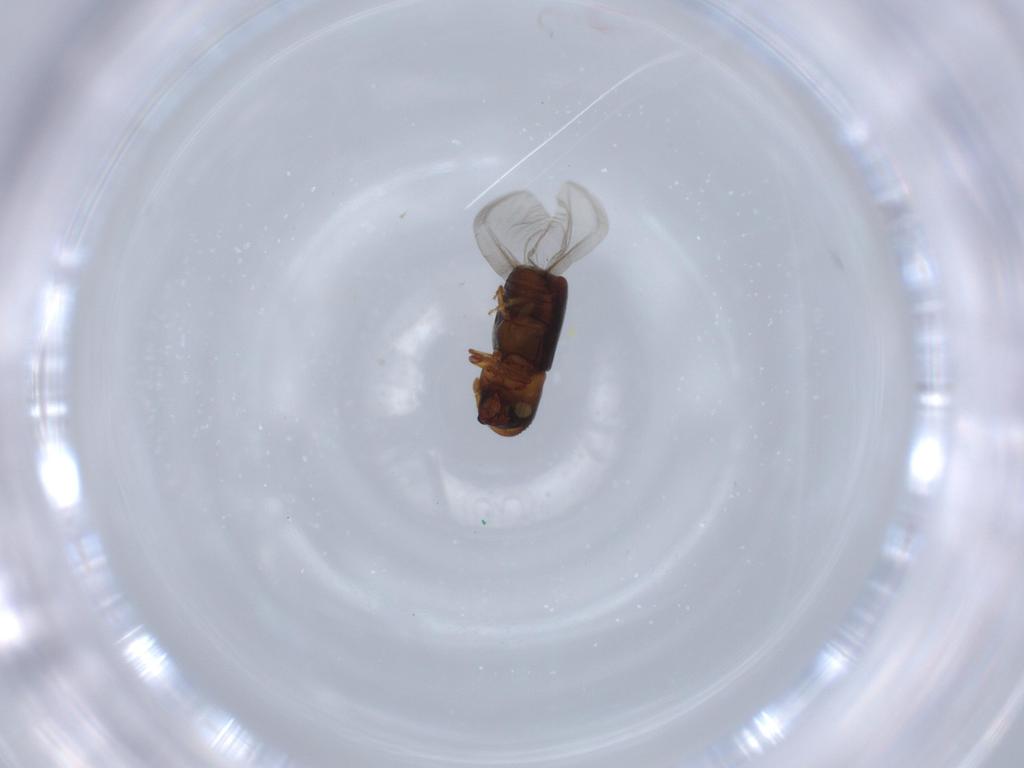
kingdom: Animalia
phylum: Arthropoda
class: Insecta
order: Coleoptera
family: Curculionidae
